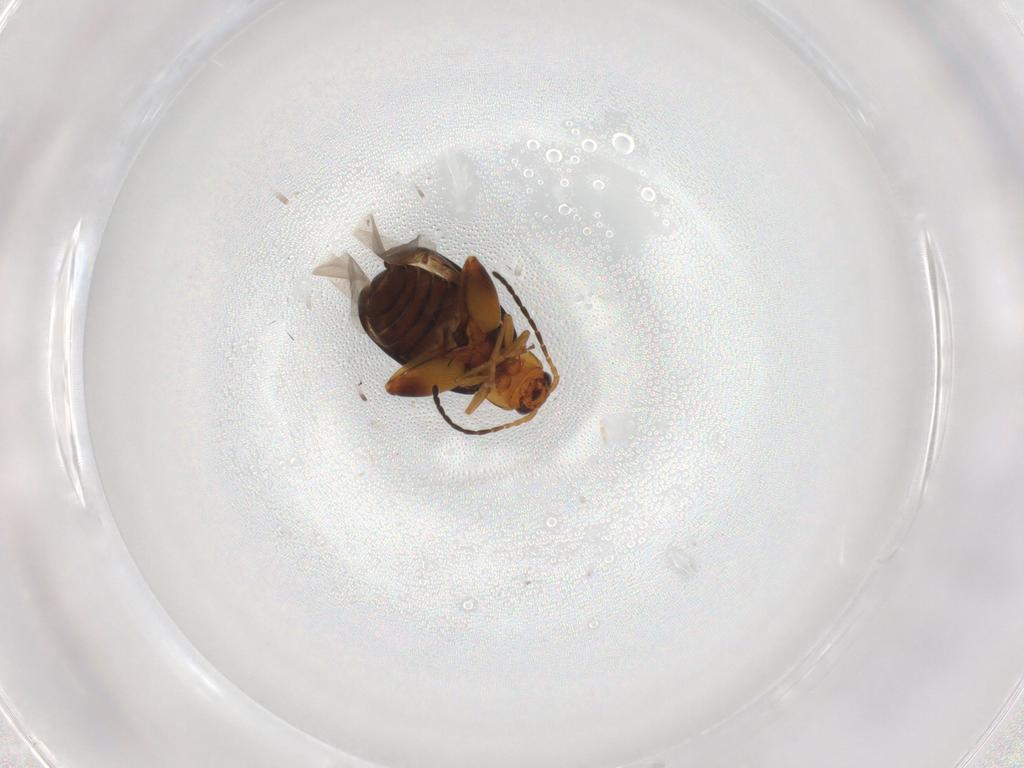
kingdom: Animalia
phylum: Arthropoda
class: Insecta
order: Coleoptera
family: Chrysomelidae
